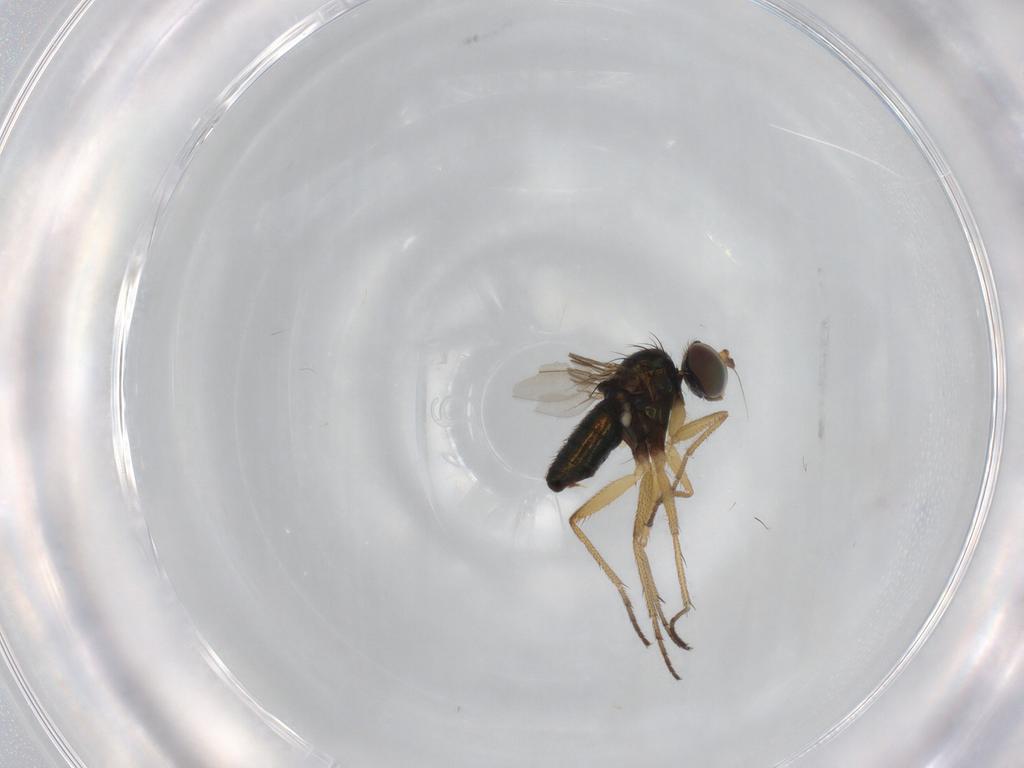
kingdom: Animalia
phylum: Arthropoda
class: Insecta
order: Diptera
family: Dolichopodidae
